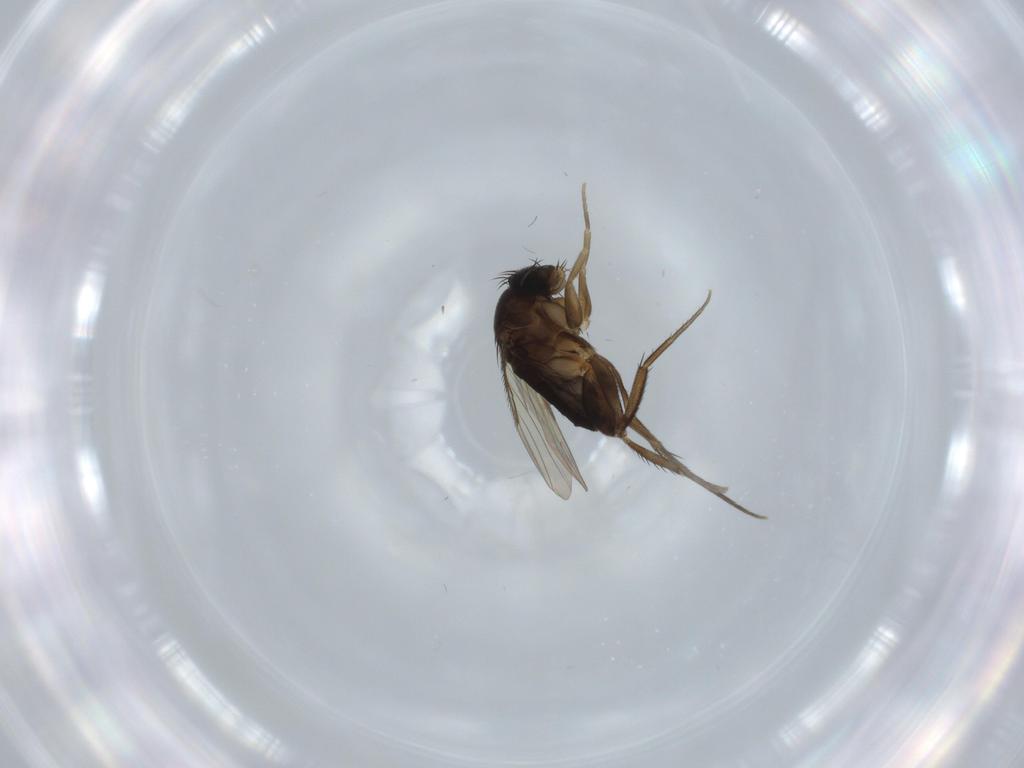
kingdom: Animalia
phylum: Arthropoda
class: Insecta
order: Diptera
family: Phoridae
